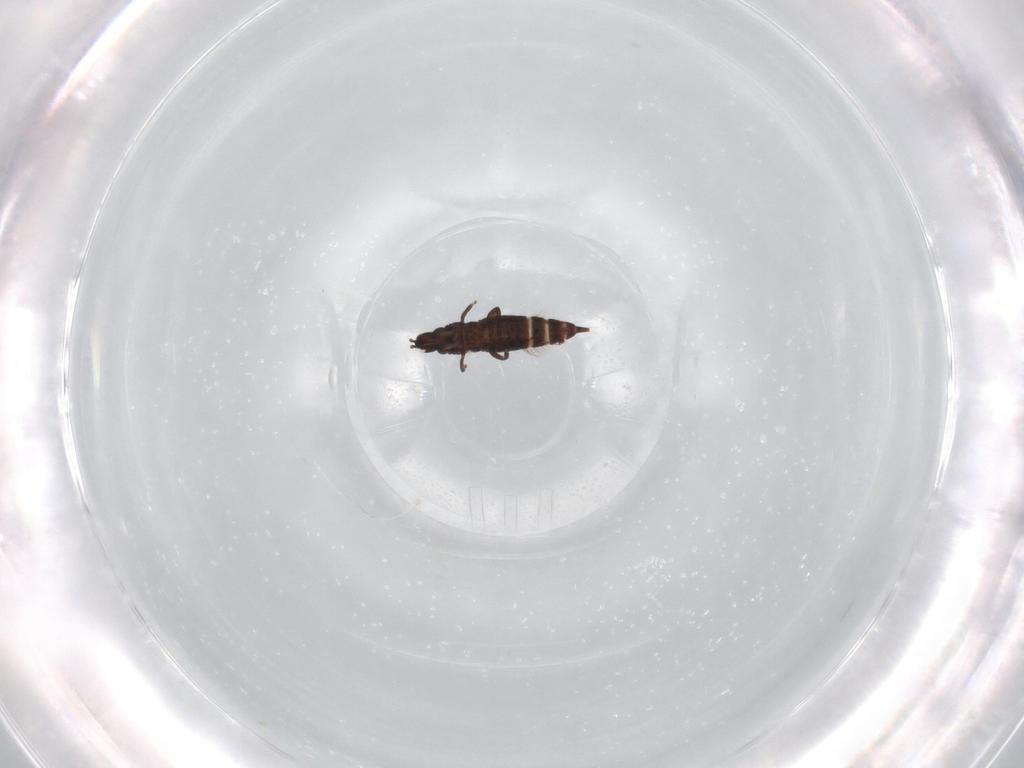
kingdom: Animalia
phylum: Arthropoda
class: Insecta
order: Thysanoptera
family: Phlaeothripidae
